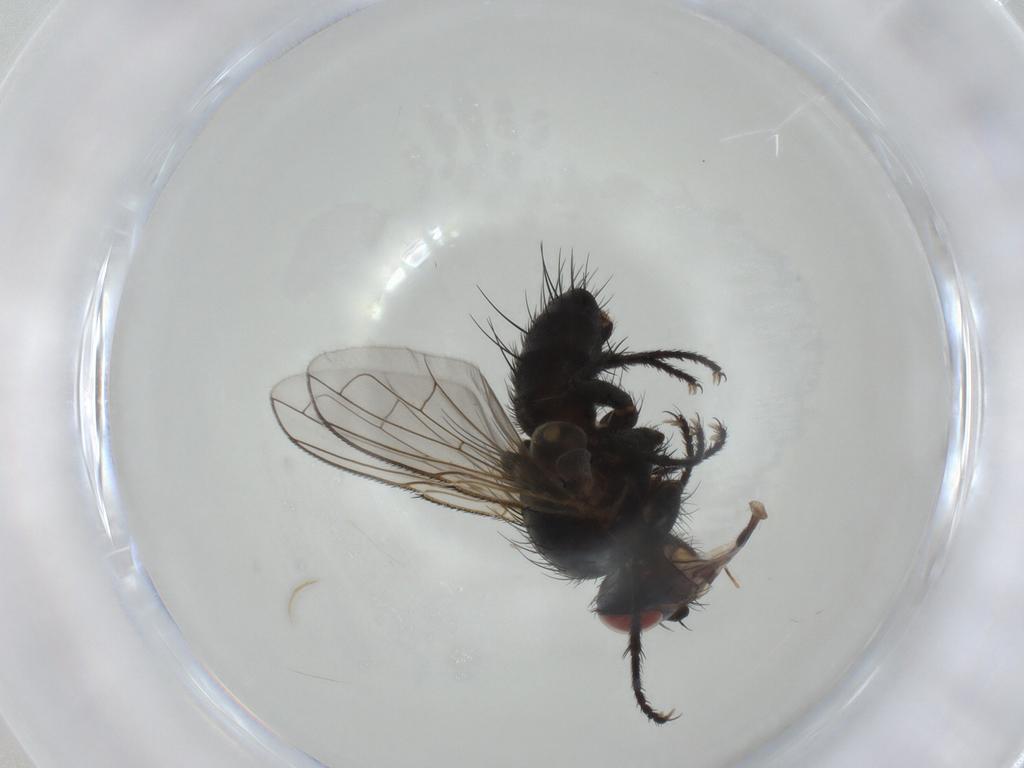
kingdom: Animalia
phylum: Arthropoda
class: Insecta
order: Diptera
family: Tachinidae
